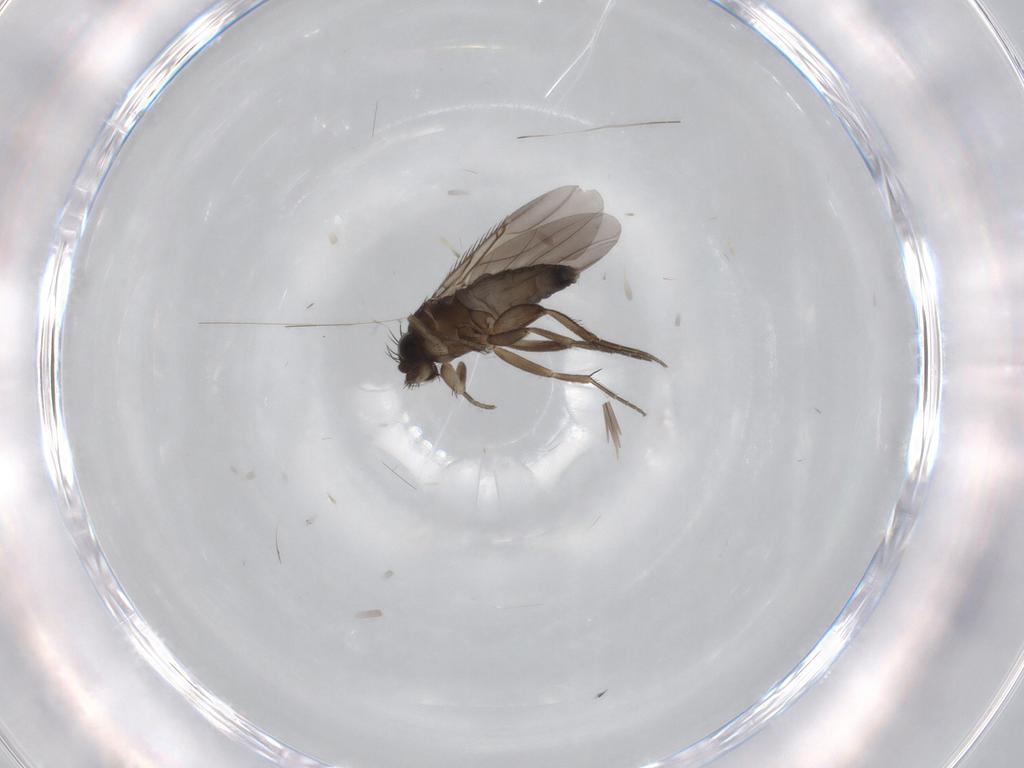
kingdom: Animalia
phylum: Arthropoda
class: Insecta
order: Diptera
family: Phoridae
